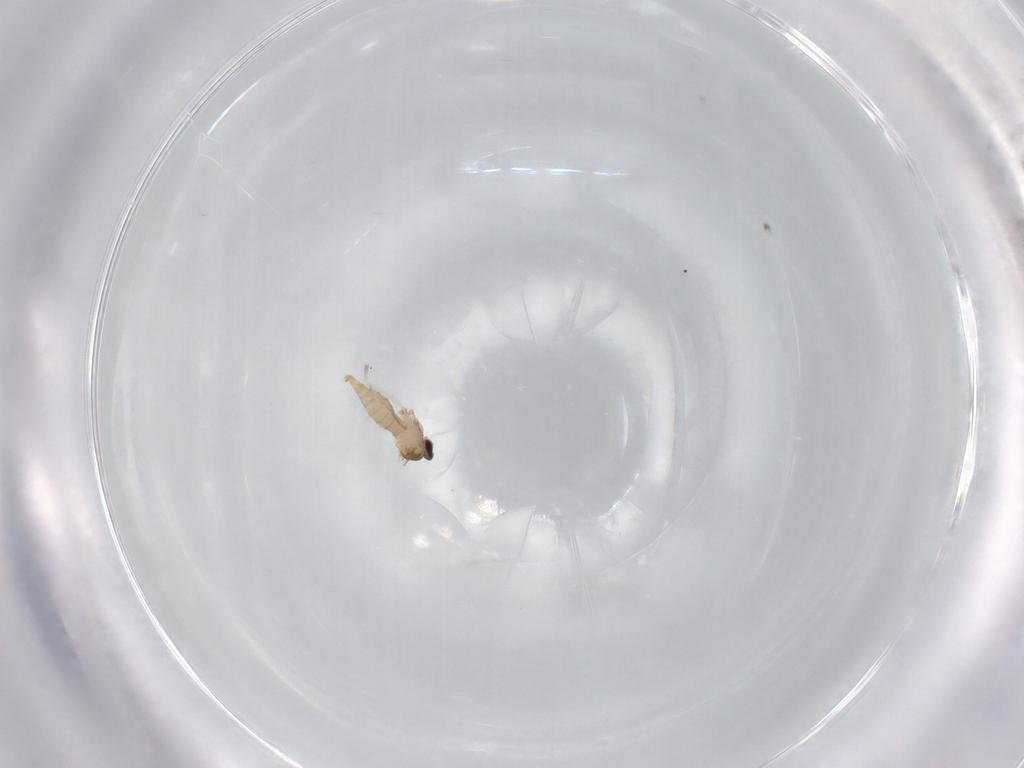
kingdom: Animalia
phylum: Arthropoda
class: Insecta
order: Diptera
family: Cecidomyiidae
